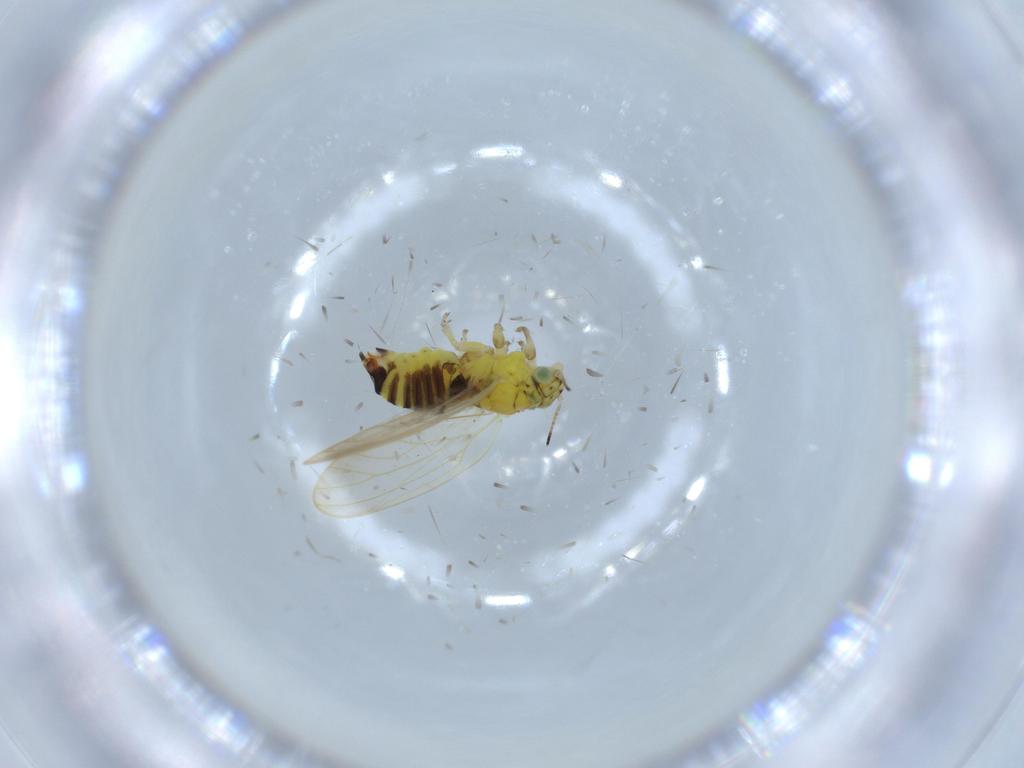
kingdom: Animalia
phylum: Arthropoda
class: Insecta
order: Hemiptera
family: Aphalaridae
